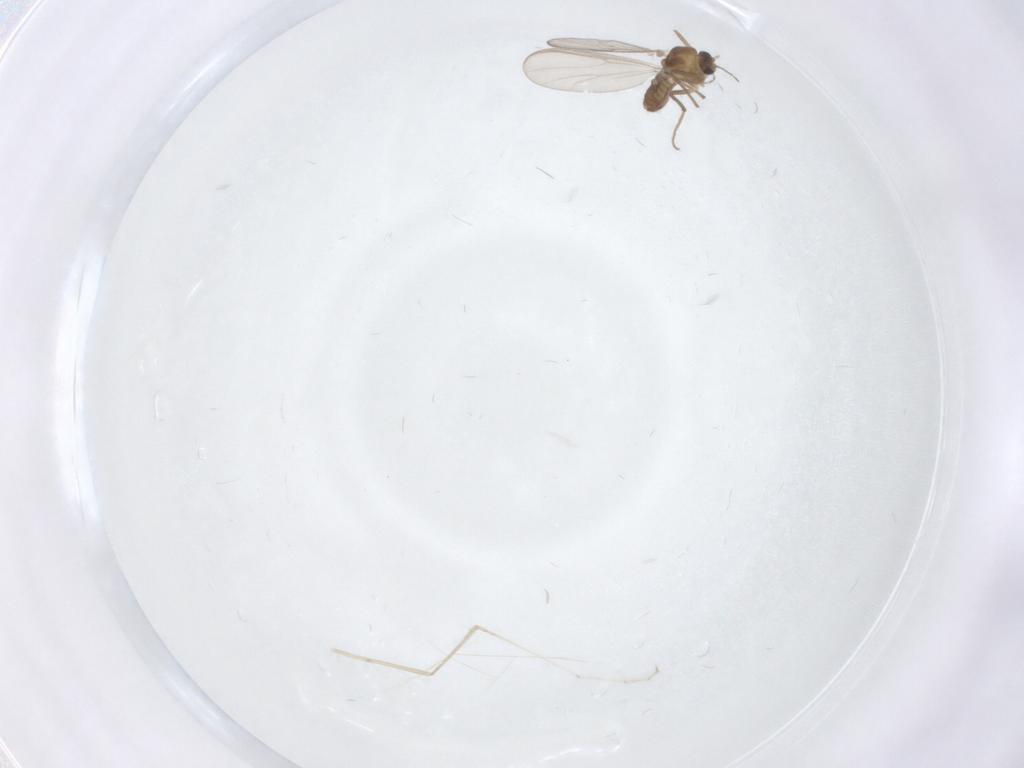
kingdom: Animalia
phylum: Arthropoda
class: Insecta
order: Diptera
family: Chironomidae
